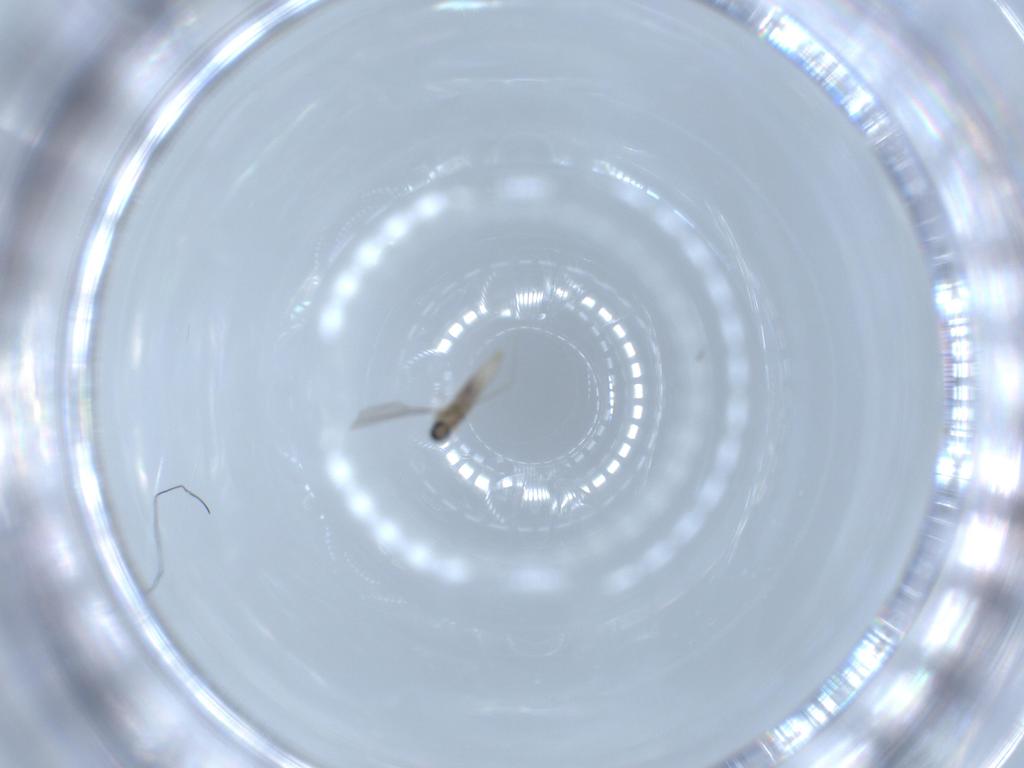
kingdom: Animalia
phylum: Arthropoda
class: Insecta
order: Diptera
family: Cecidomyiidae
